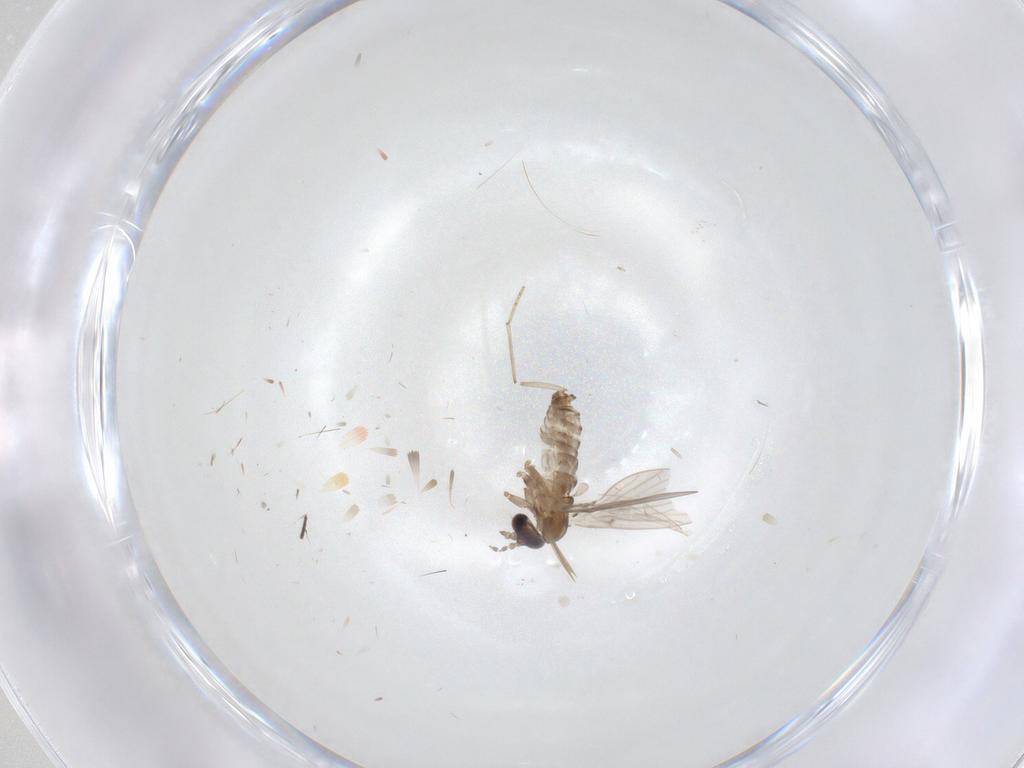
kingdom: Animalia
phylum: Arthropoda
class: Insecta
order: Diptera
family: Psychodidae
